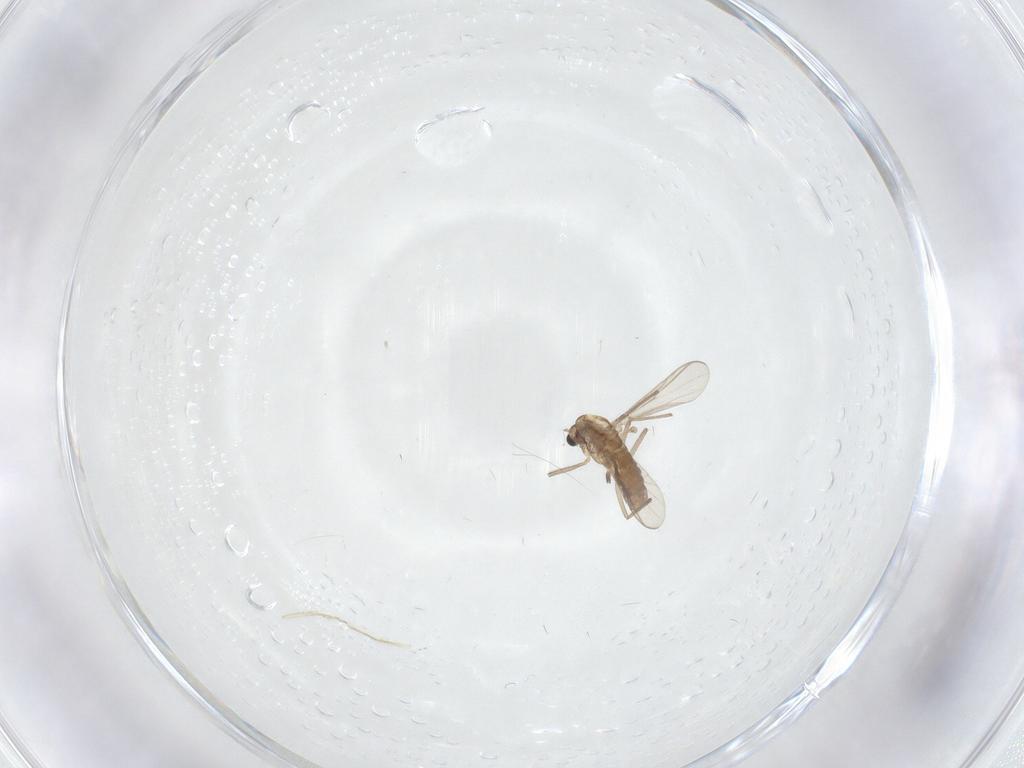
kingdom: Animalia
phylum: Arthropoda
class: Insecta
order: Diptera
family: Chironomidae
